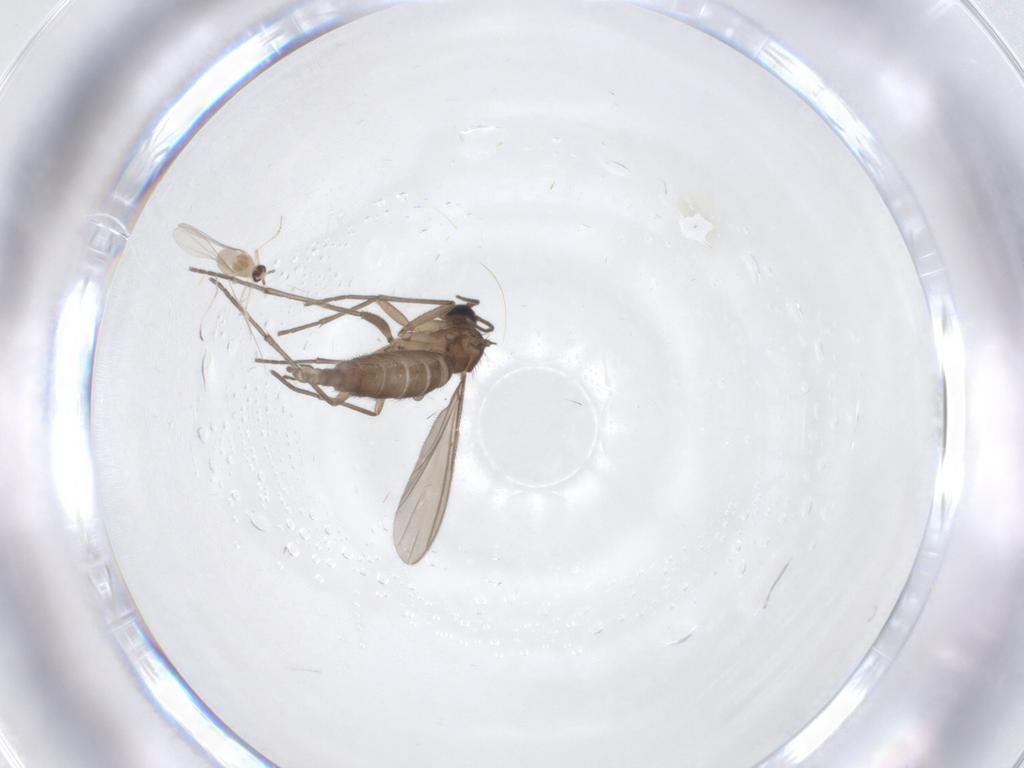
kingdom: Animalia
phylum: Arthropoda
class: Insecta
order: Diptera
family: Sciaridae
